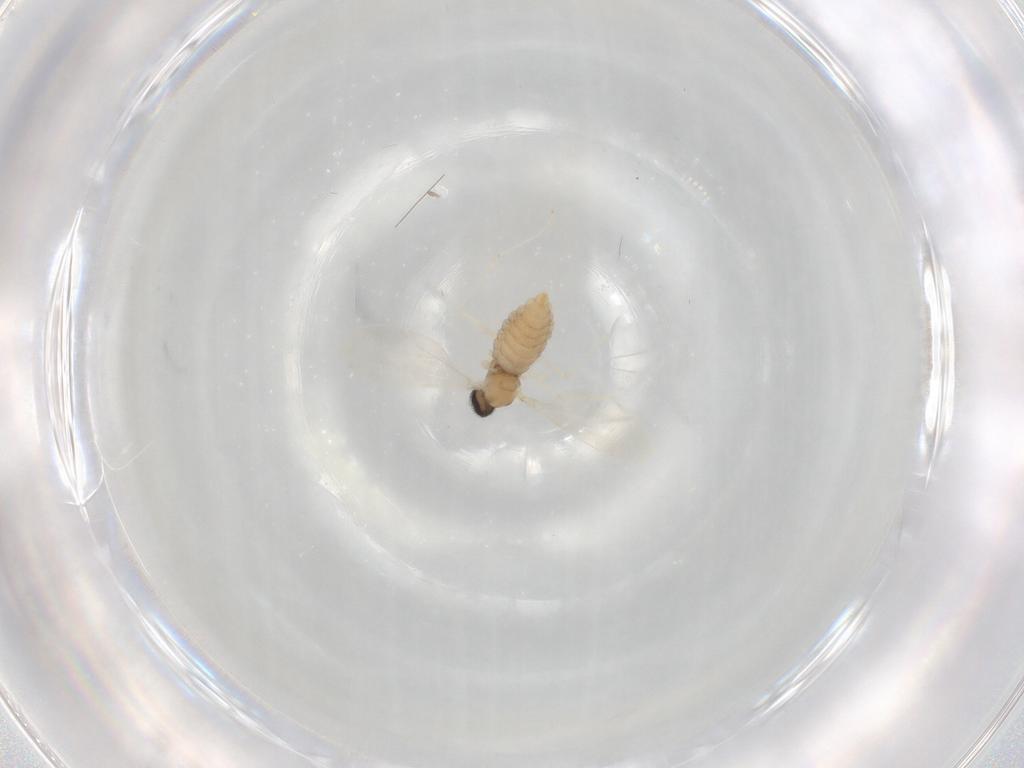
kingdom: Animalia
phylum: Arthropoda
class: Insecta
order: Diptera
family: Cecidomyiidae
